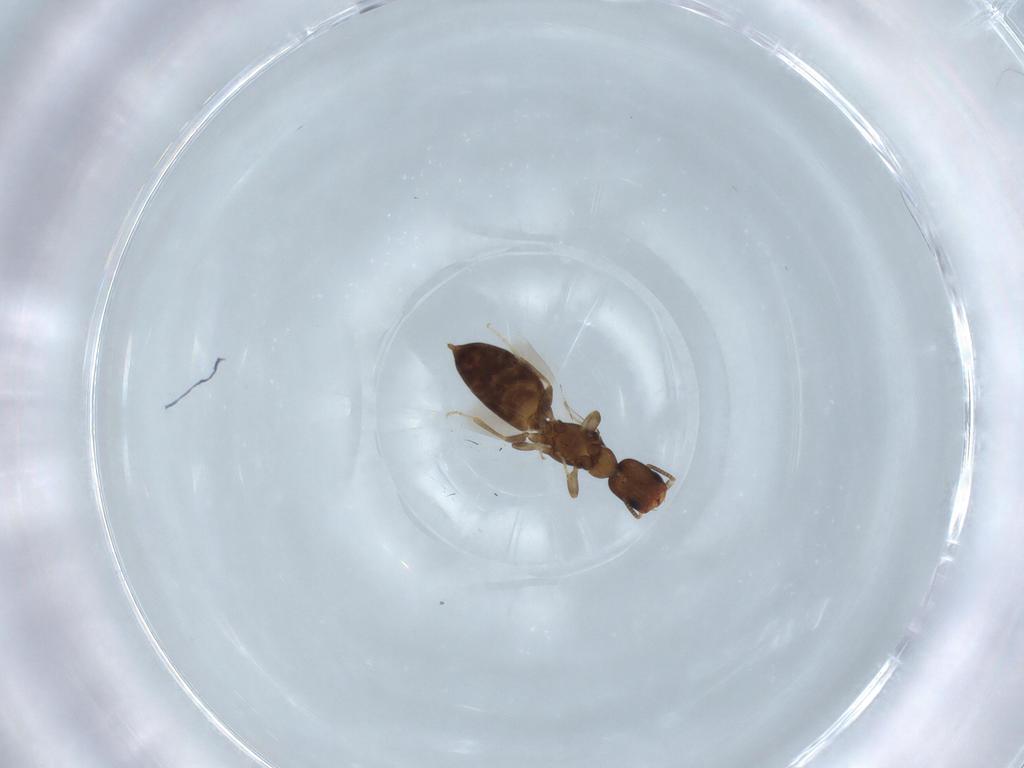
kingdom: Animalia
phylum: Arthropoda
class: Insecta
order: Hymenoptera
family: Bethylidae
